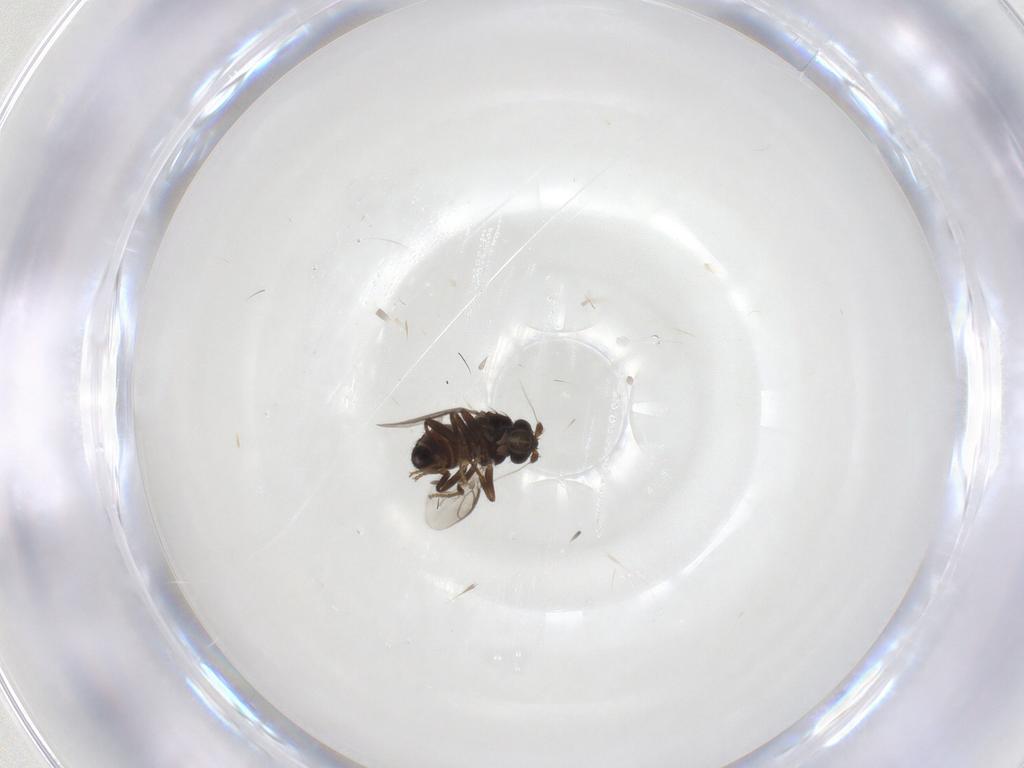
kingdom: Animalia
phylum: Arthropoda
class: Insecta
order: Diptera
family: Sphaeroceridae
